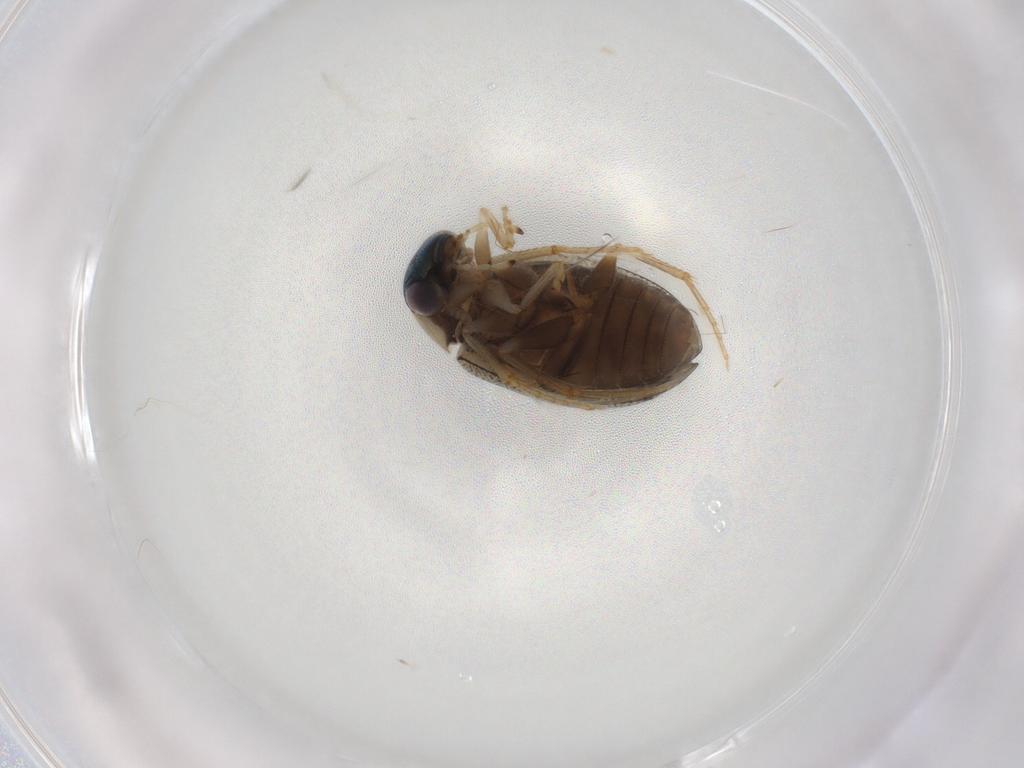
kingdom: Animalia
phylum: Arthropoda
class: Insecta
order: Coleoptera
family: Hydrophilidae
